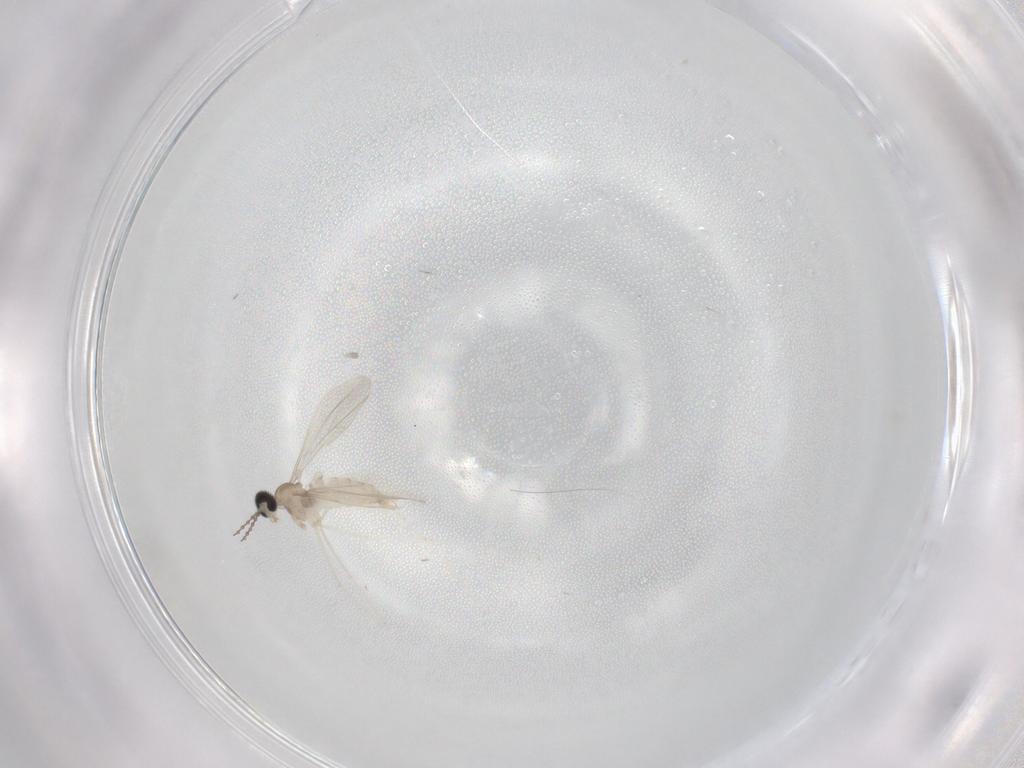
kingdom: Animalia
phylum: Arthropoda
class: Insecta
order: Diptera
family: Cecidomyiidae
